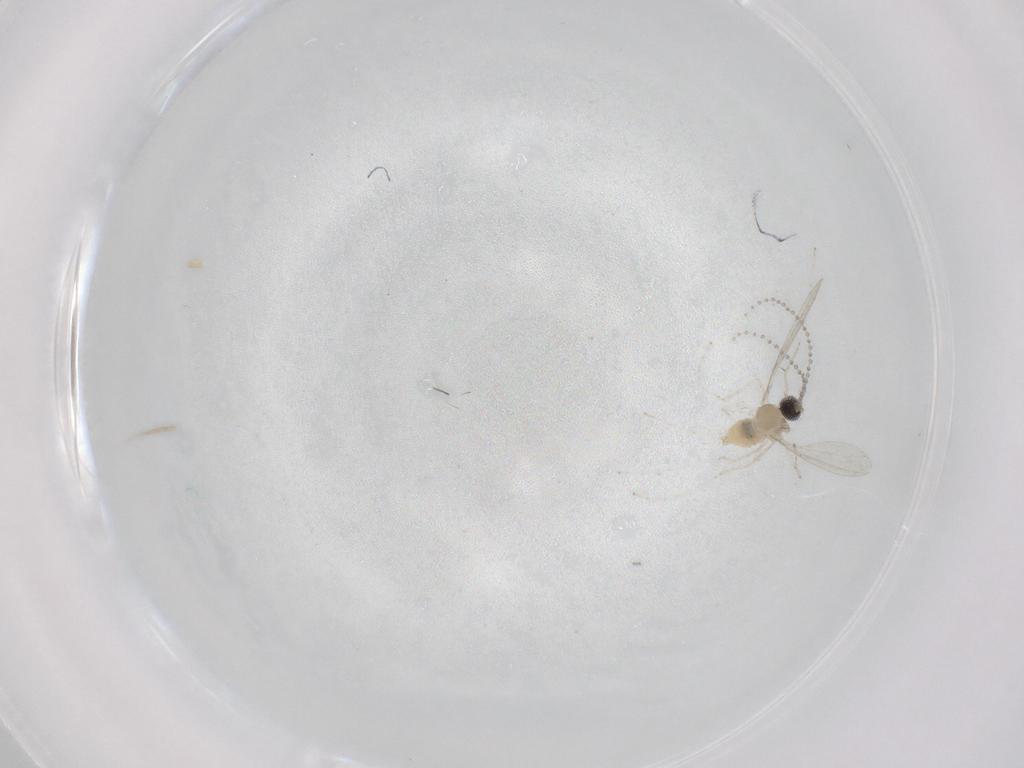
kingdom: Animalia
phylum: Arthropoda
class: Insecta
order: Diptera
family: Cecidomyiidae
